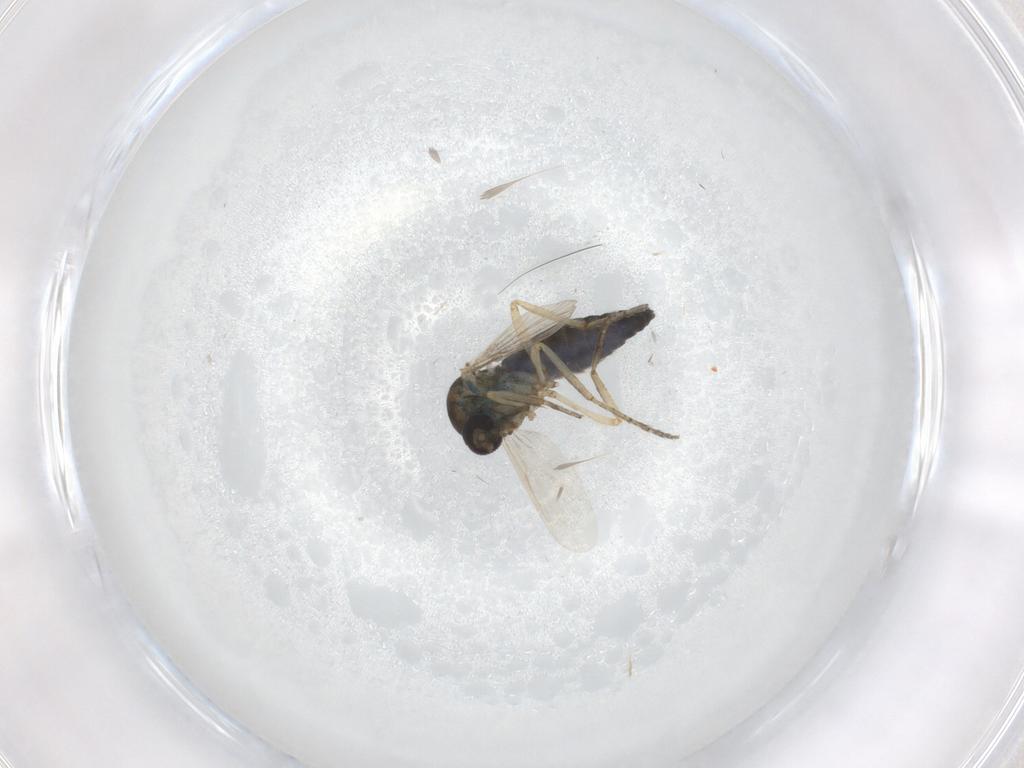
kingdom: Animalia
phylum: Arthropoda
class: Insecta
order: Diptera
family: Ceratopogonidae
